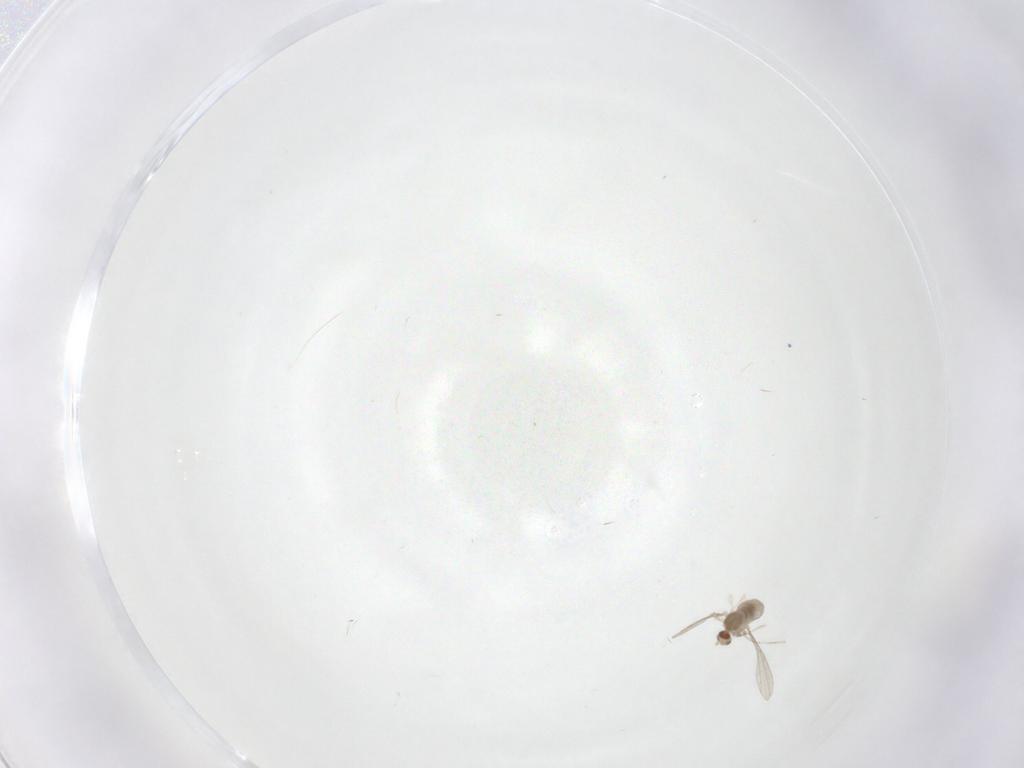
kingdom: Animalia
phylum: Arthropoda
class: Insecta
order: Diptera
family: Cecidomyiidae
